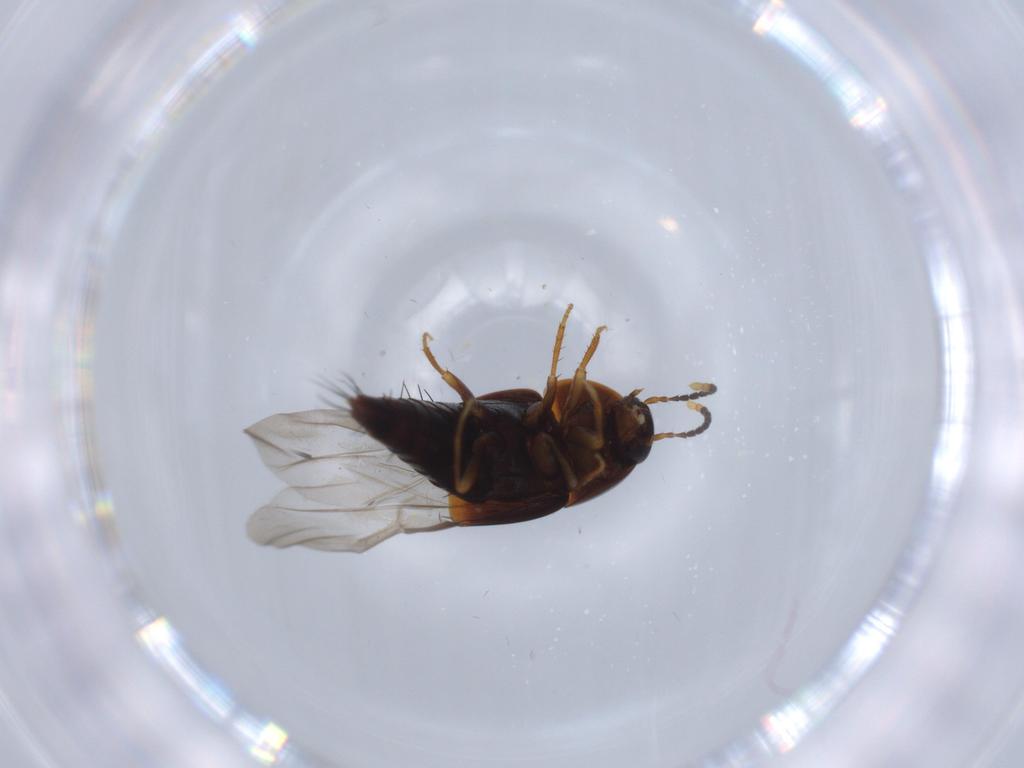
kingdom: Animalia
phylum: Arthropoda
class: Insecta
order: Coleoptera
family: Staphylinidae
